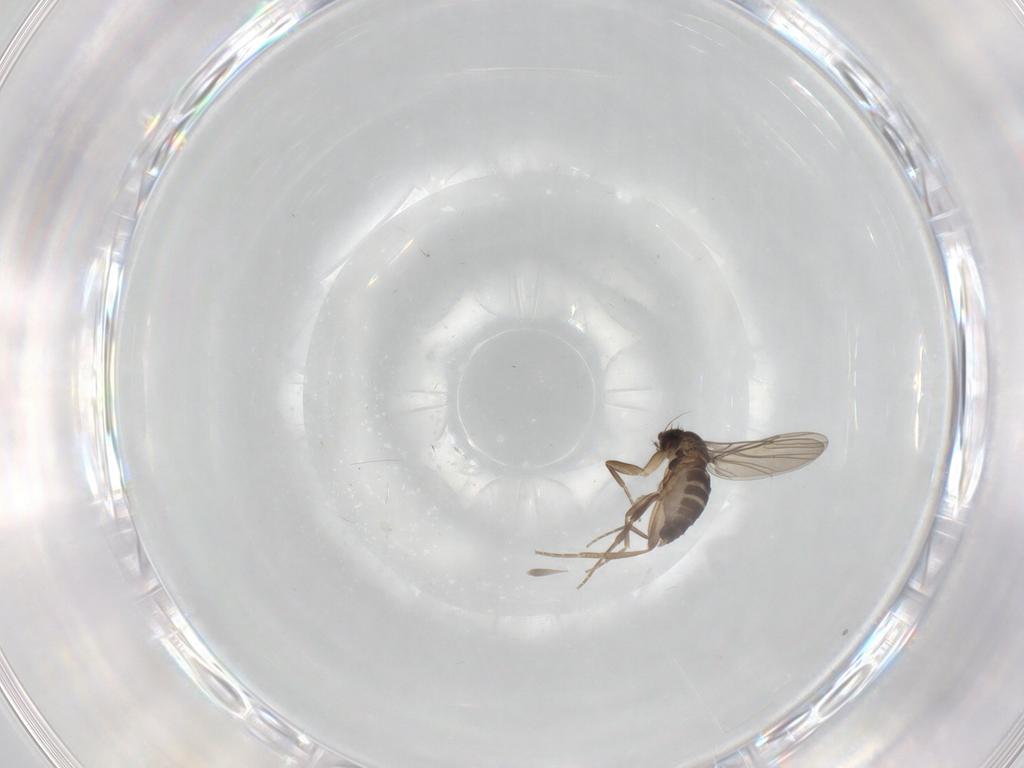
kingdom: Animalia
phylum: Arthropoda
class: Insecta
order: Diptera
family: Phoridae
